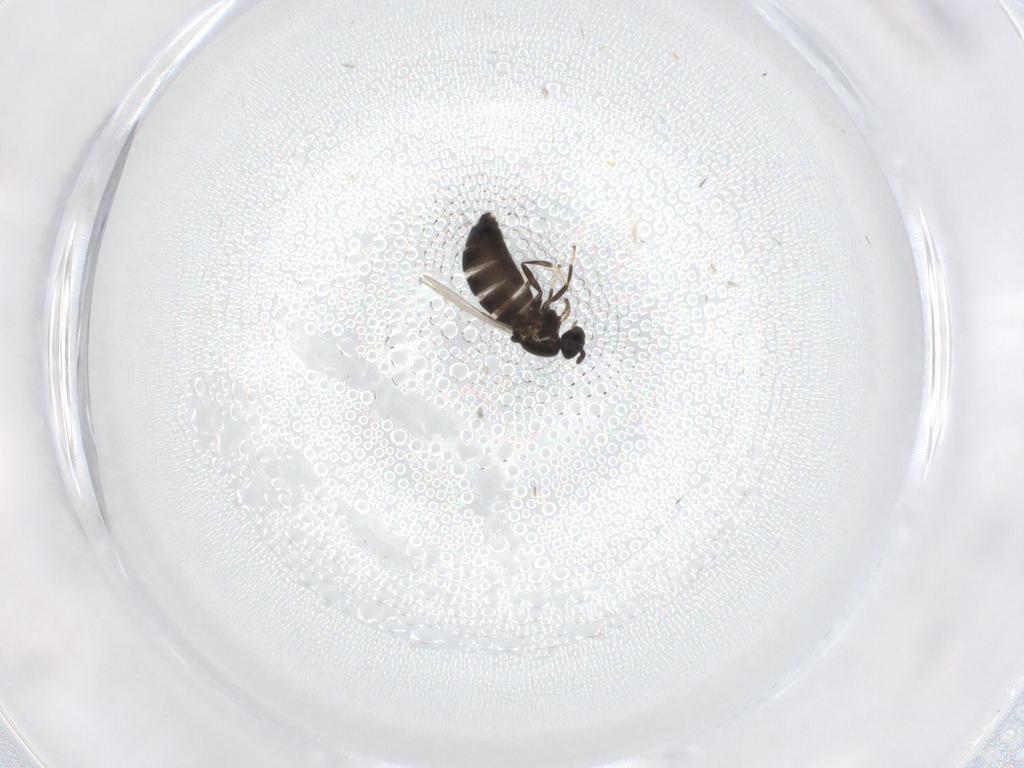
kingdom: Animalia
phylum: Arthropoda
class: Insecta
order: Diptera
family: Scatopsidae
